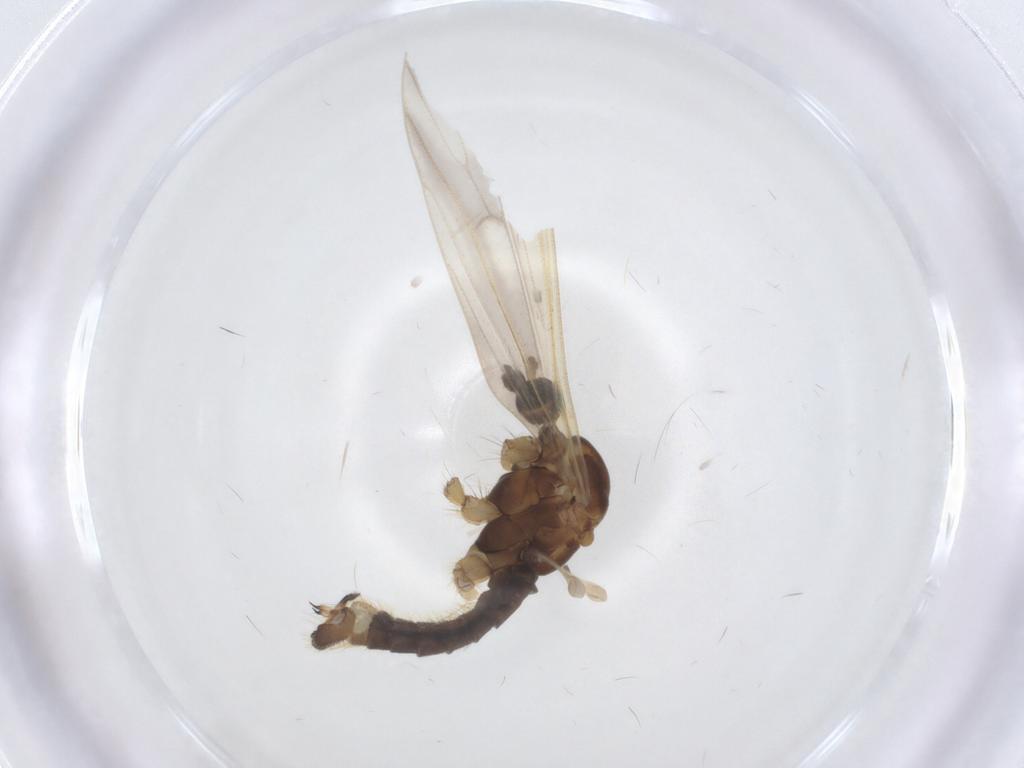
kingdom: Animalia
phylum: Arthropoda
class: Insecta
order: Diptera
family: Limoniidae
